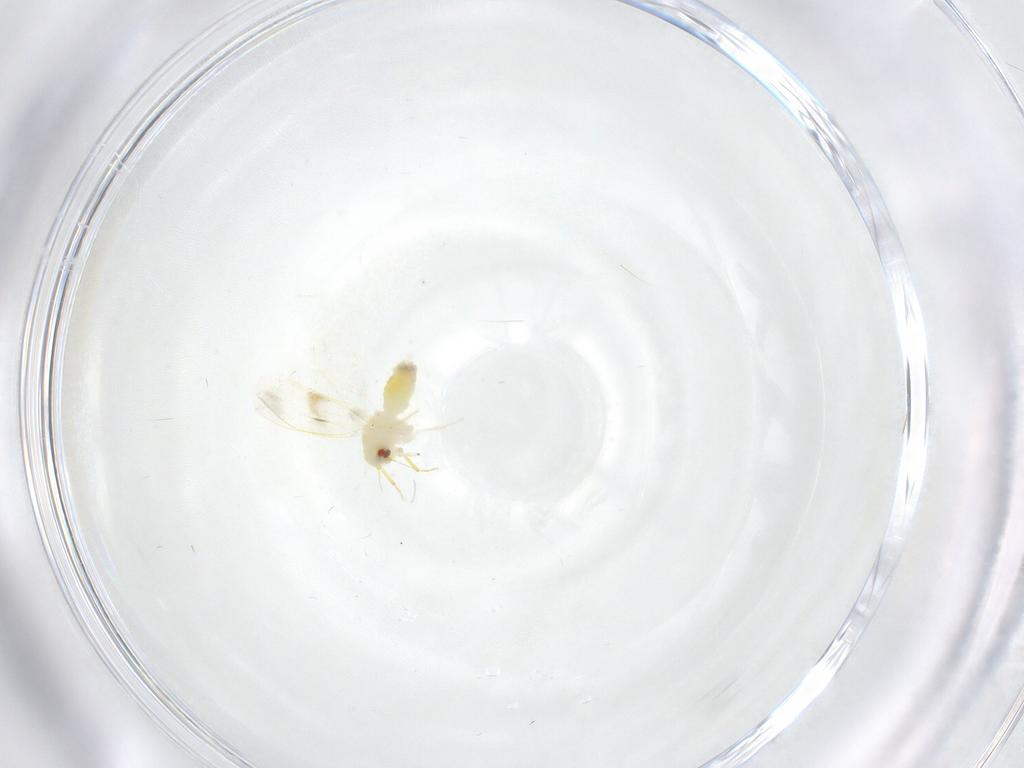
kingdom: Animalia
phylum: Arthropoda
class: Insecta
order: Hemiptera
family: Aleyrodidae
